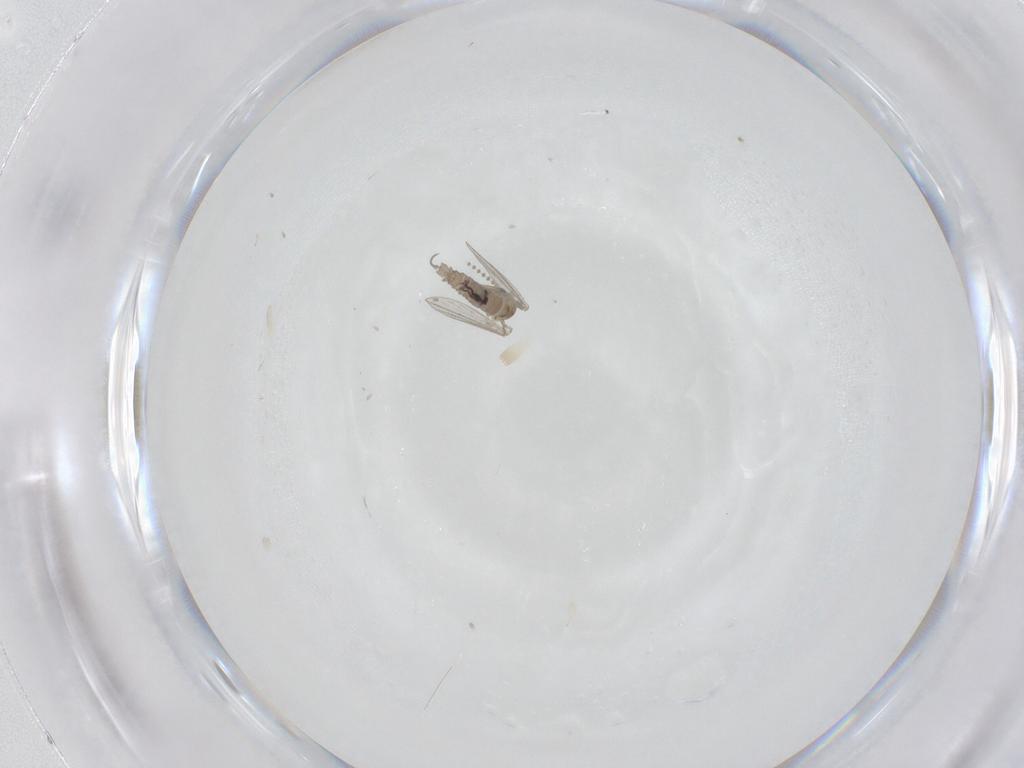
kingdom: Animalia
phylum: Arthropoda
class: Insecta
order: Diptera
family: Psychodidae
